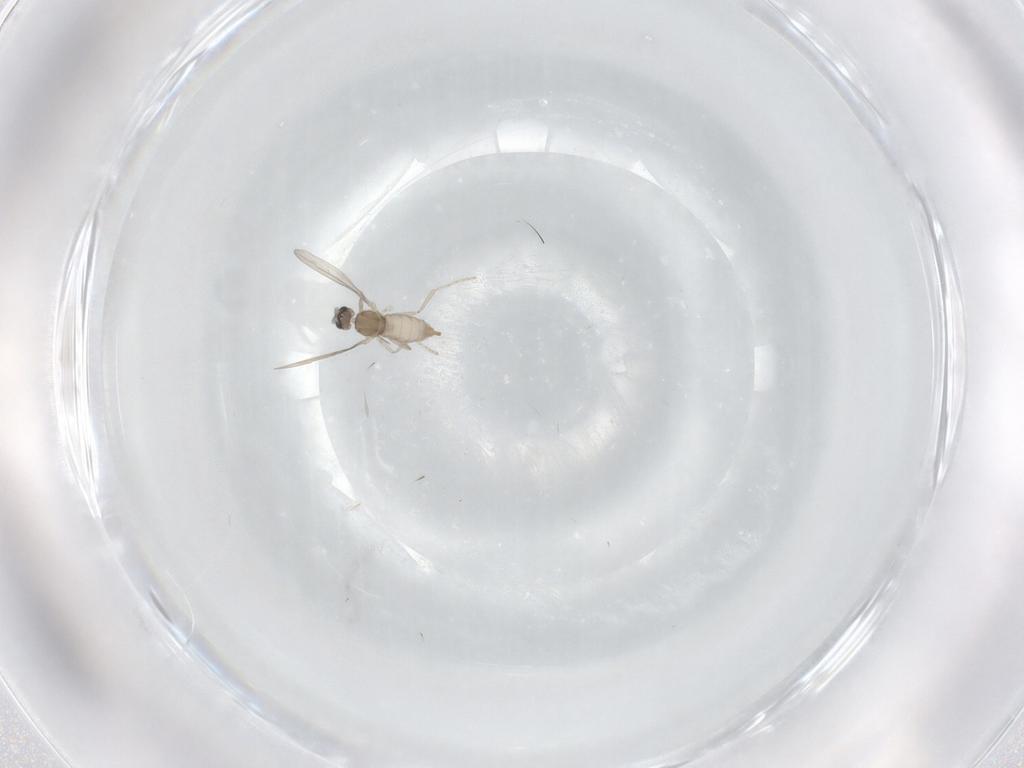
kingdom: Animalia
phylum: Arthropoda
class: Insecta
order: Diptera
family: Cecidomyiidae
